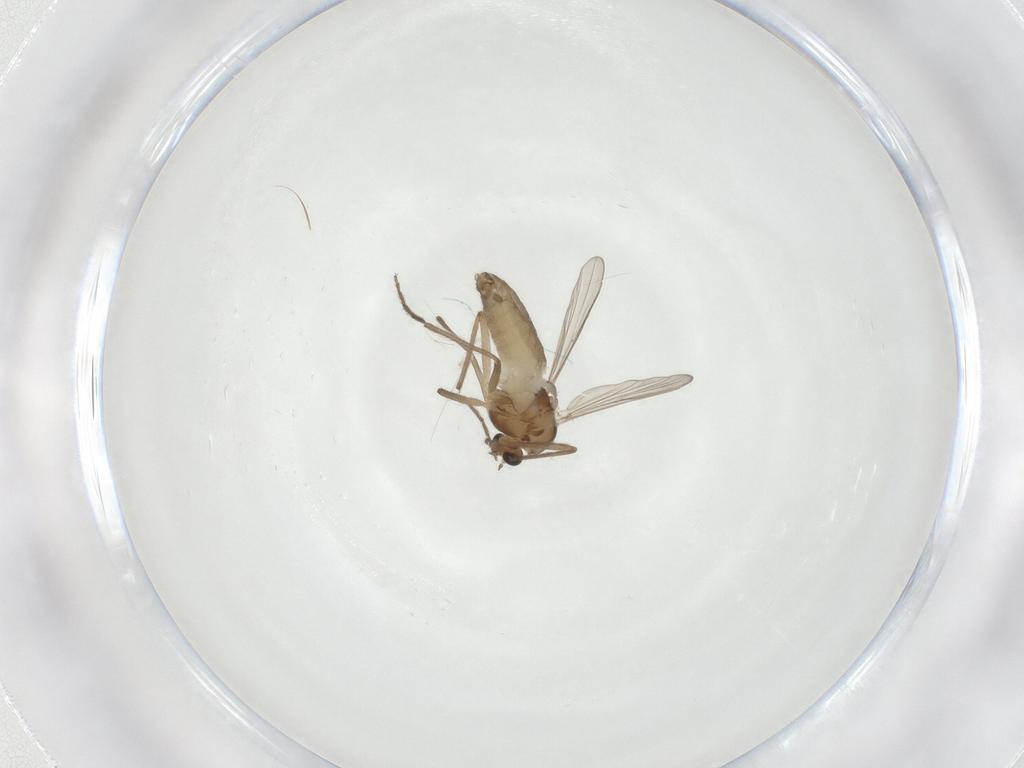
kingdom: Animalia
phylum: Arthropoda
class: Insecta
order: Diptera
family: Chironomidae
